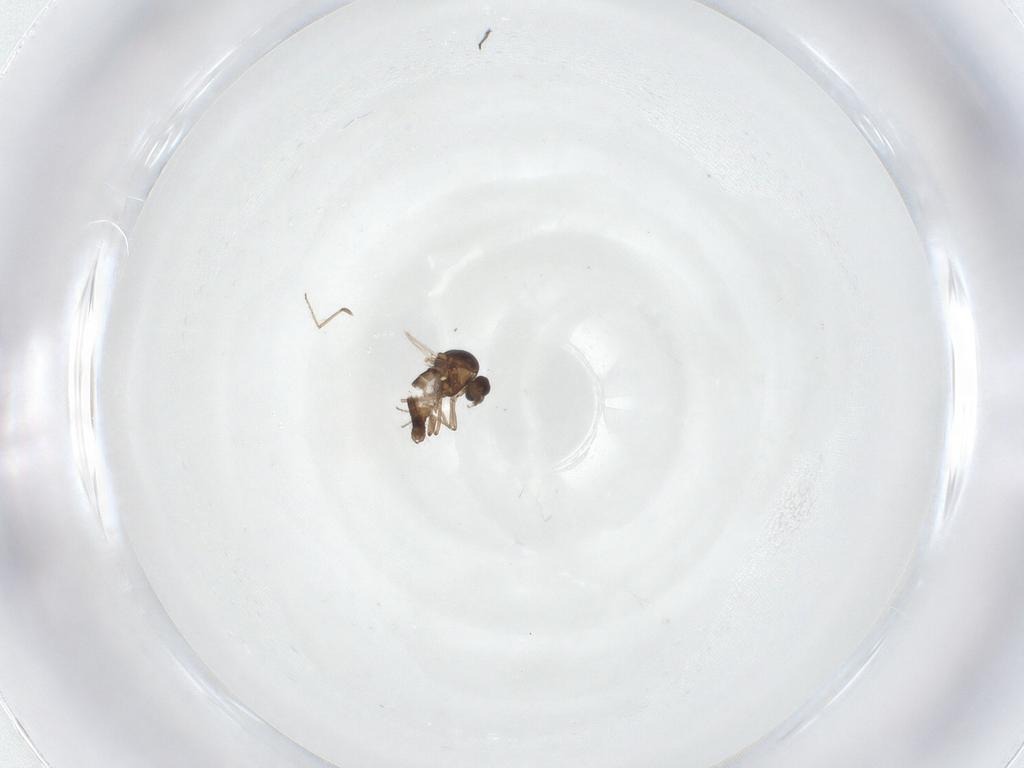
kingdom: Animalia
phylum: Arthropoda
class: Insecta
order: Diptera
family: Ceratopogonidae
